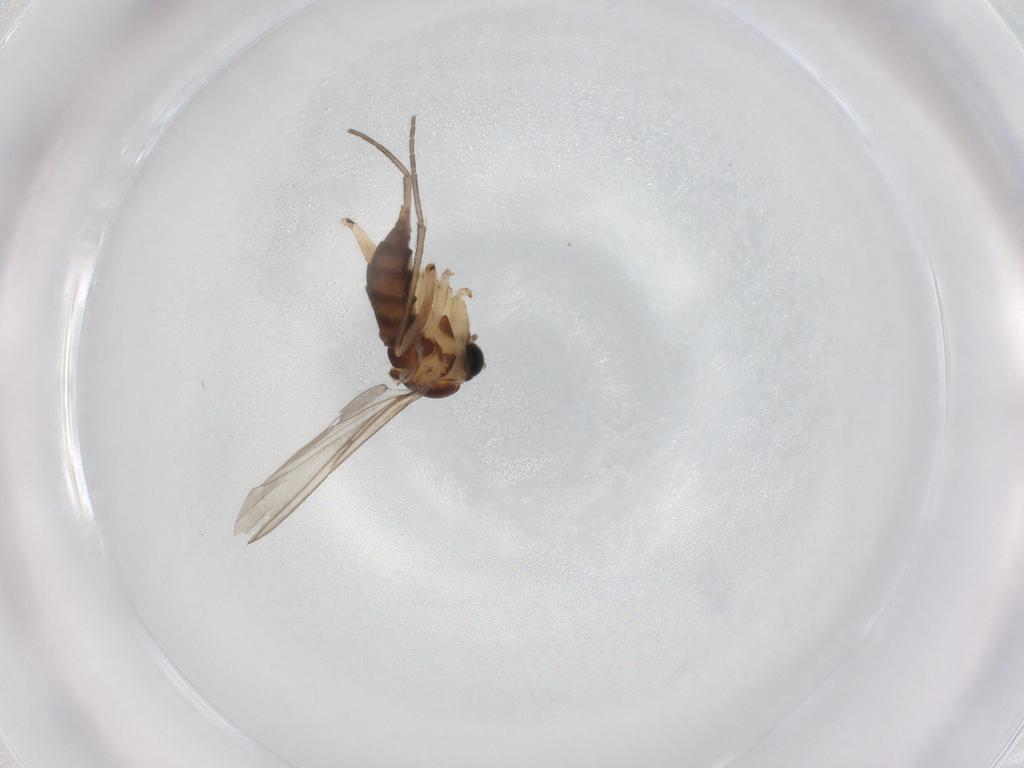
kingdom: Animalia
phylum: Arthropoda
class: Insecta
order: Diptera
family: Sciaridae
